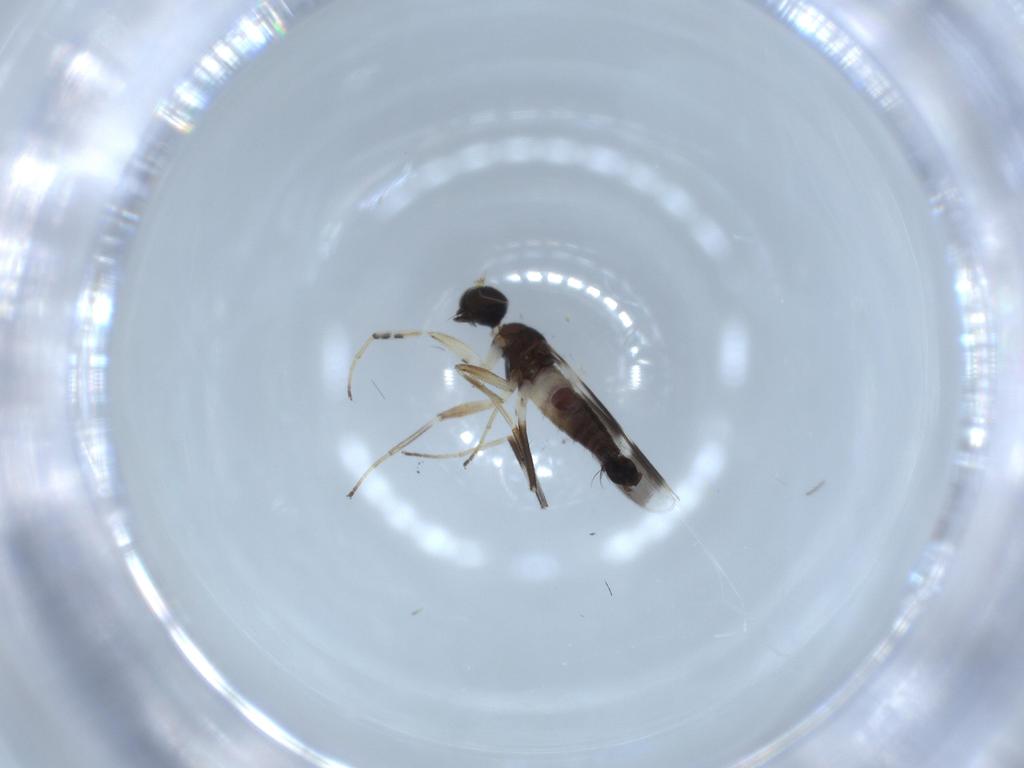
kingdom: Animalia
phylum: Arthropoda
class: Insecta
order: Diptera
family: Hybotidae
